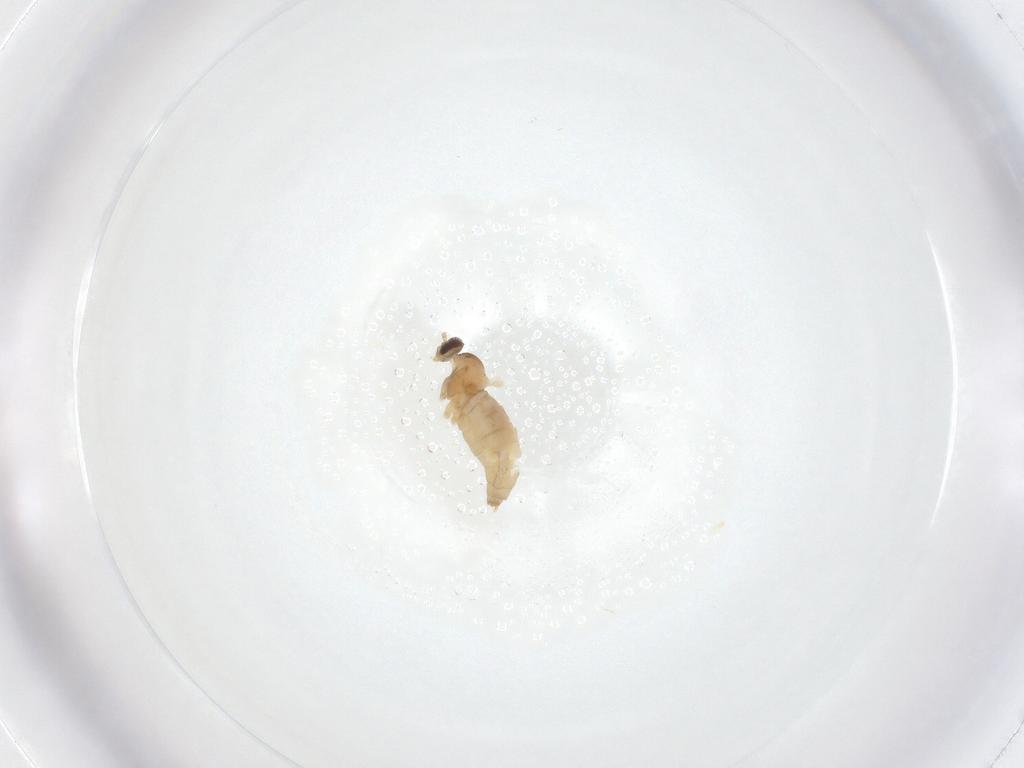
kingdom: Animalia
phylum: Arthropoda
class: Insecta
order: Diptera
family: Cecidomyiidae
